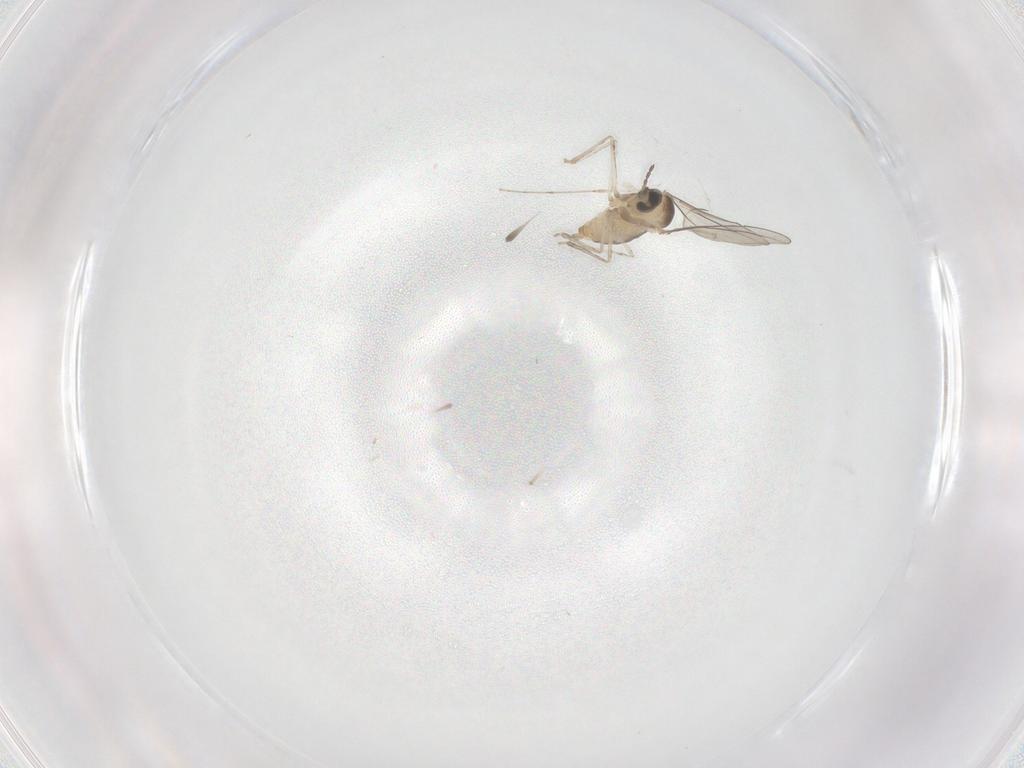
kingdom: Animalia
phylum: Arthropoda
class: Insecta
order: Diptera
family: Cecidomyiidae
